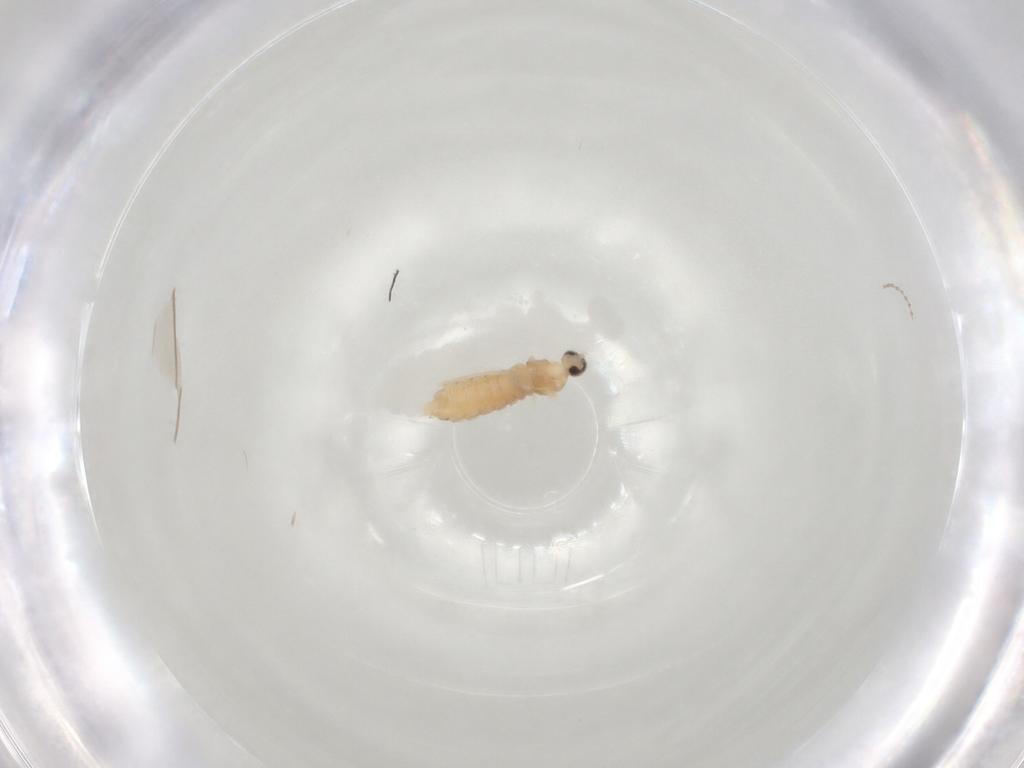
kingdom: Animalia
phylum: Arthropoda
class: Insecta
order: Diptera
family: Cecidomyiidae
